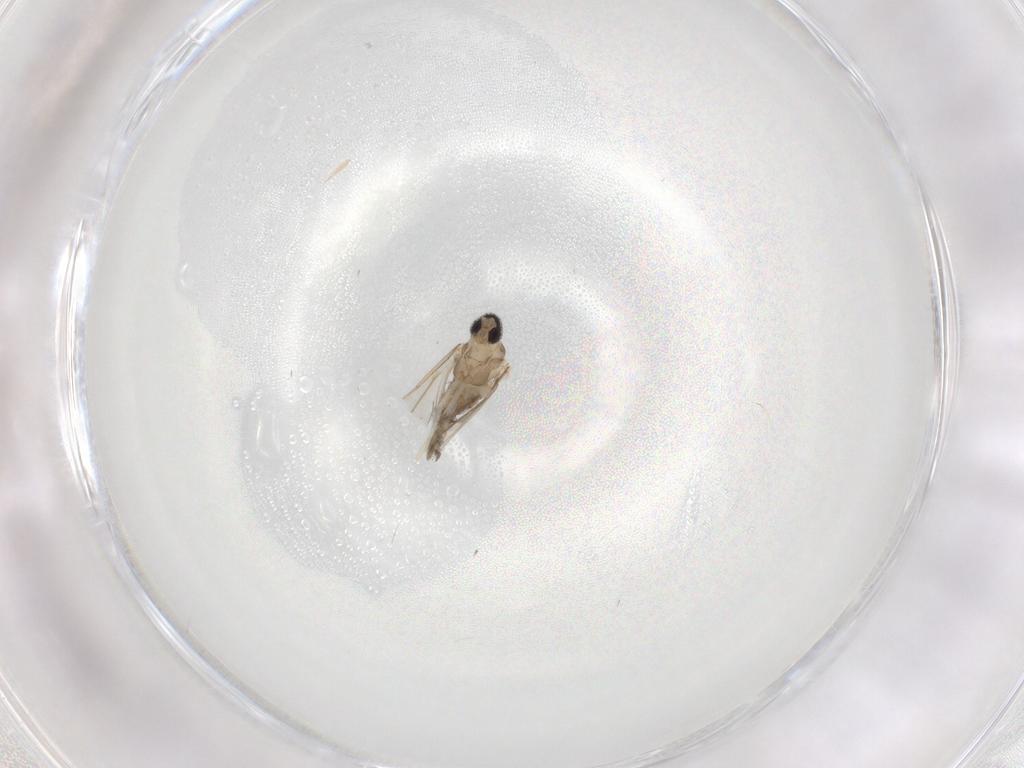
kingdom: Animalia
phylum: Arthropoda
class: Insecta
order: Diptera
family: Cecidomyiidae
